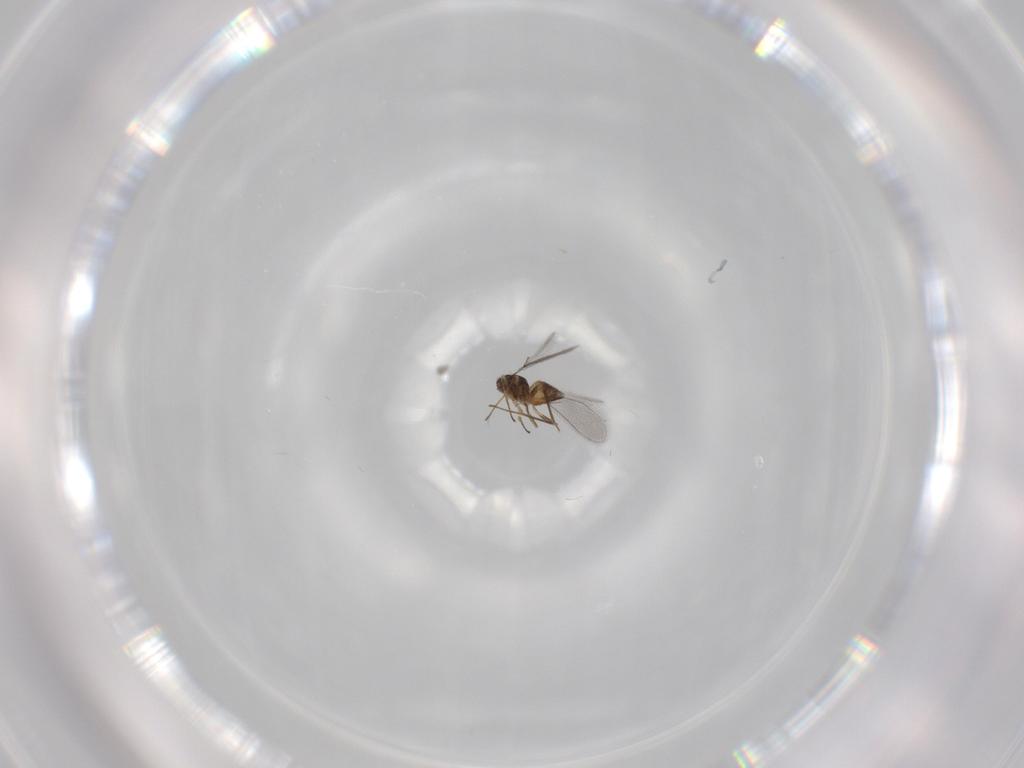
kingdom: Animalia
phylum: Arthropoda
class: Insecta
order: Hymenoptera
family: Mymaridae
